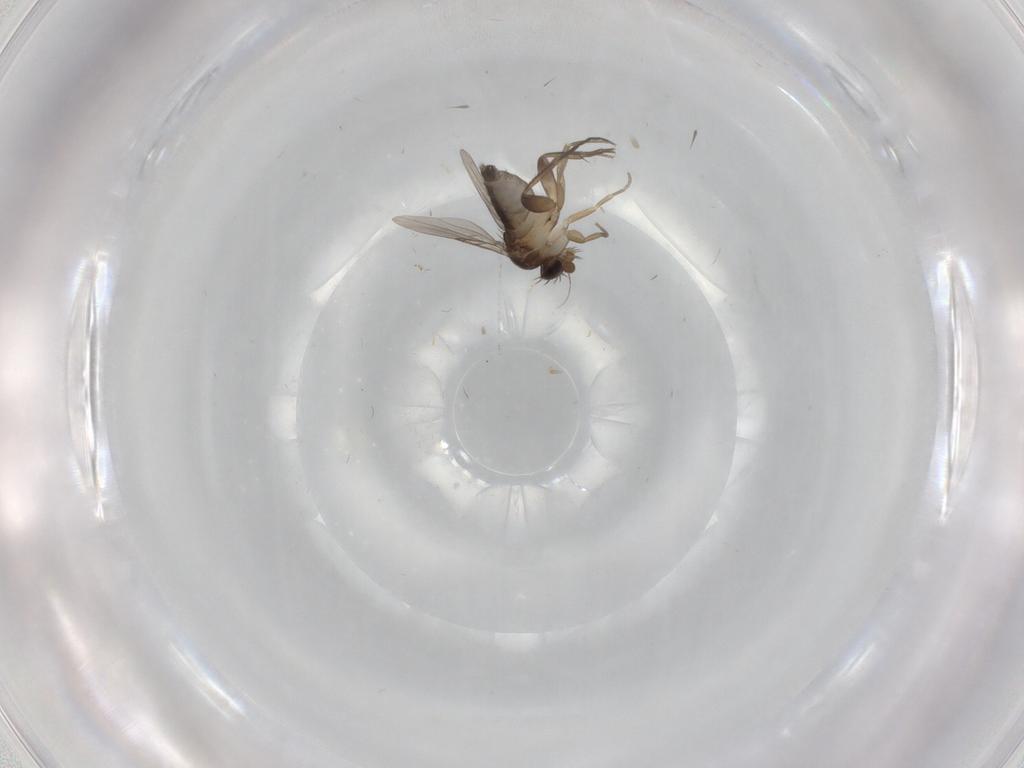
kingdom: Animalia
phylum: Arthropoda
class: Insecta
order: Diptera
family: Phoridae
